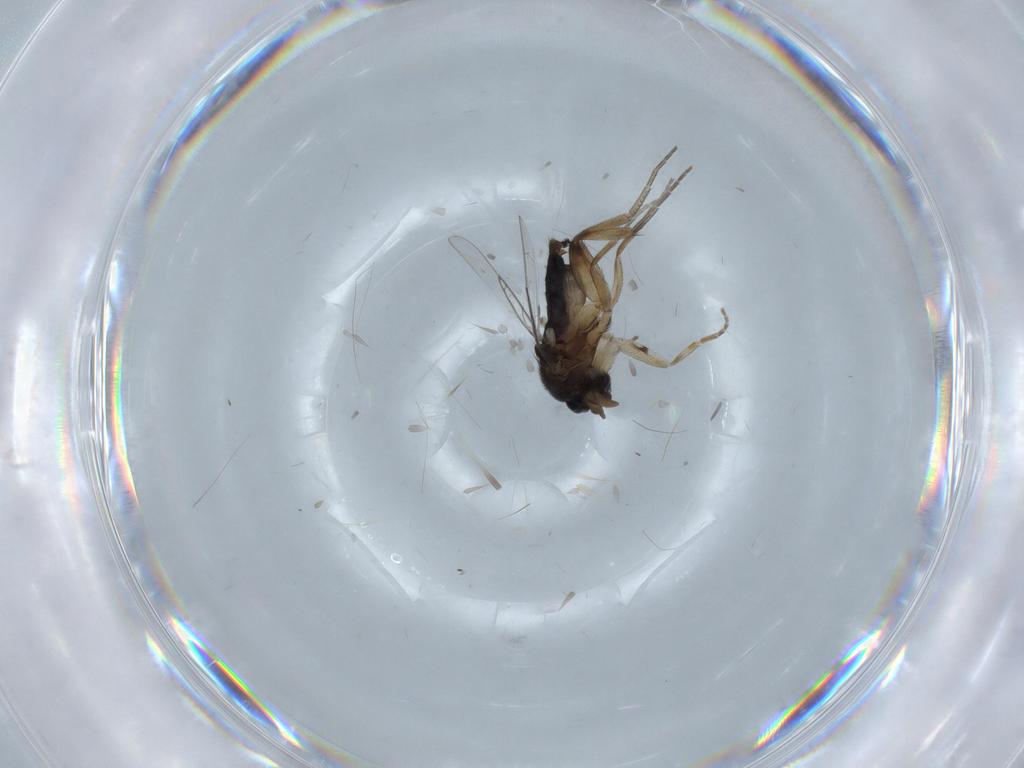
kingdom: Animalia
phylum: Arthropoda
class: Insecta
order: Diptera
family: Phoridae
